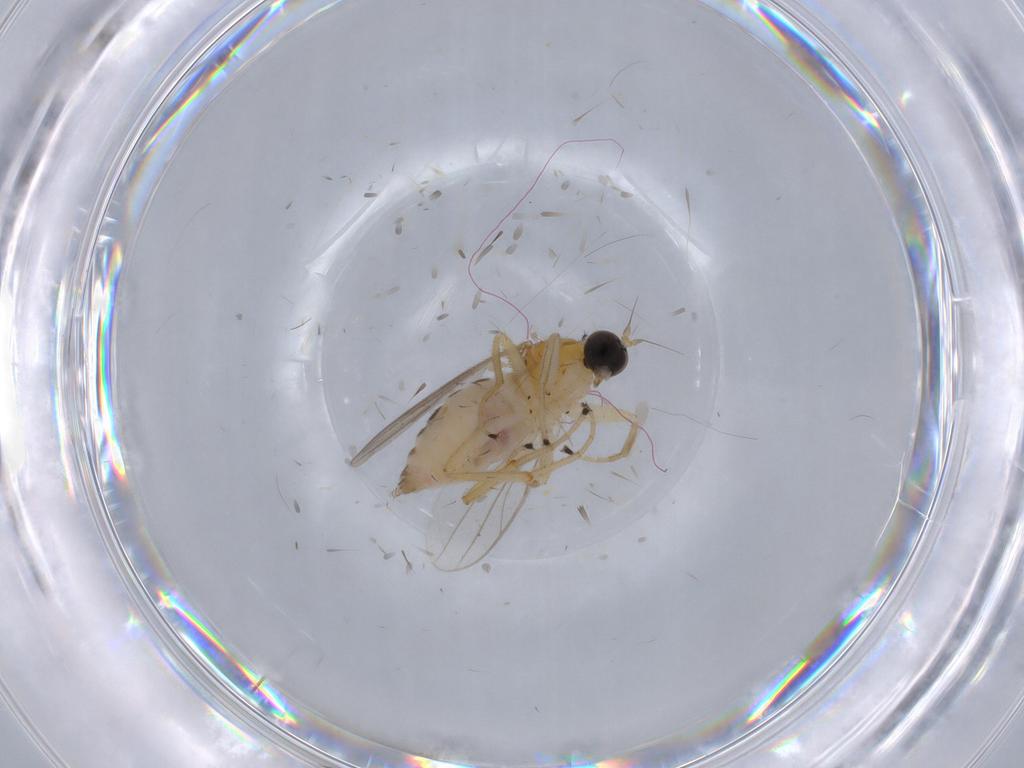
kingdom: Animalia
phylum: Arthropoda
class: Insecta
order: Diptera
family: Hybotidae
